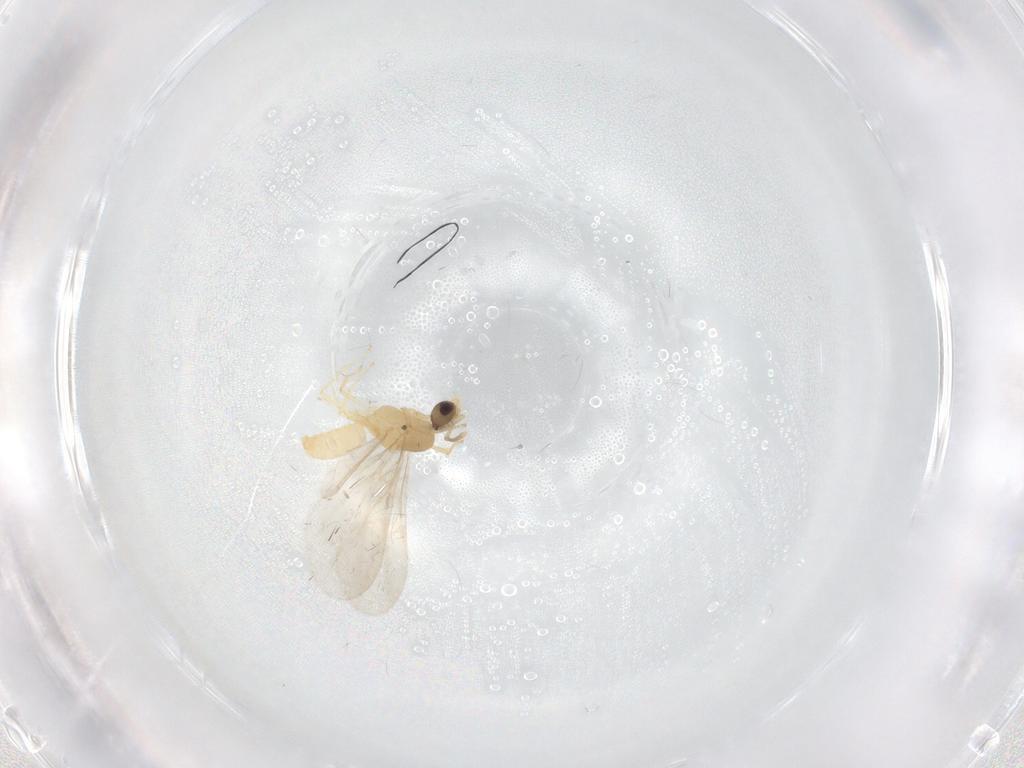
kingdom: Animalia
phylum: Arthropoda
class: Insecta
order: Hymenoptera
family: Formicidae
